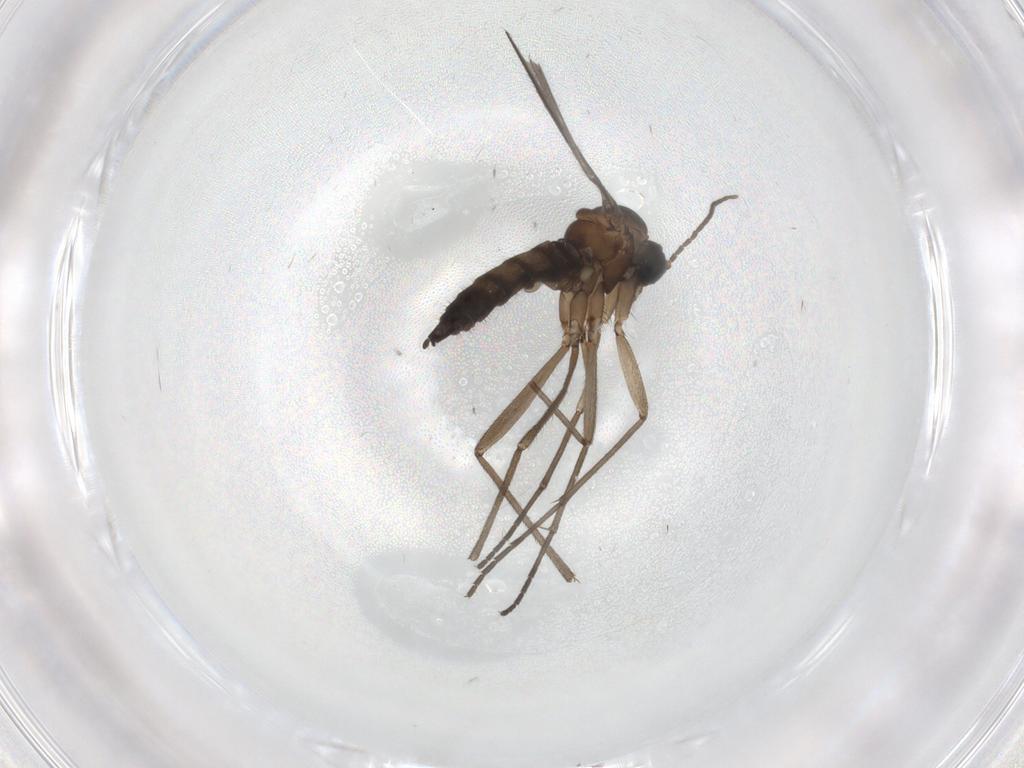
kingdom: Animalia
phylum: Arthropoda
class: Insecta
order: Diptera
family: Sciaridae
